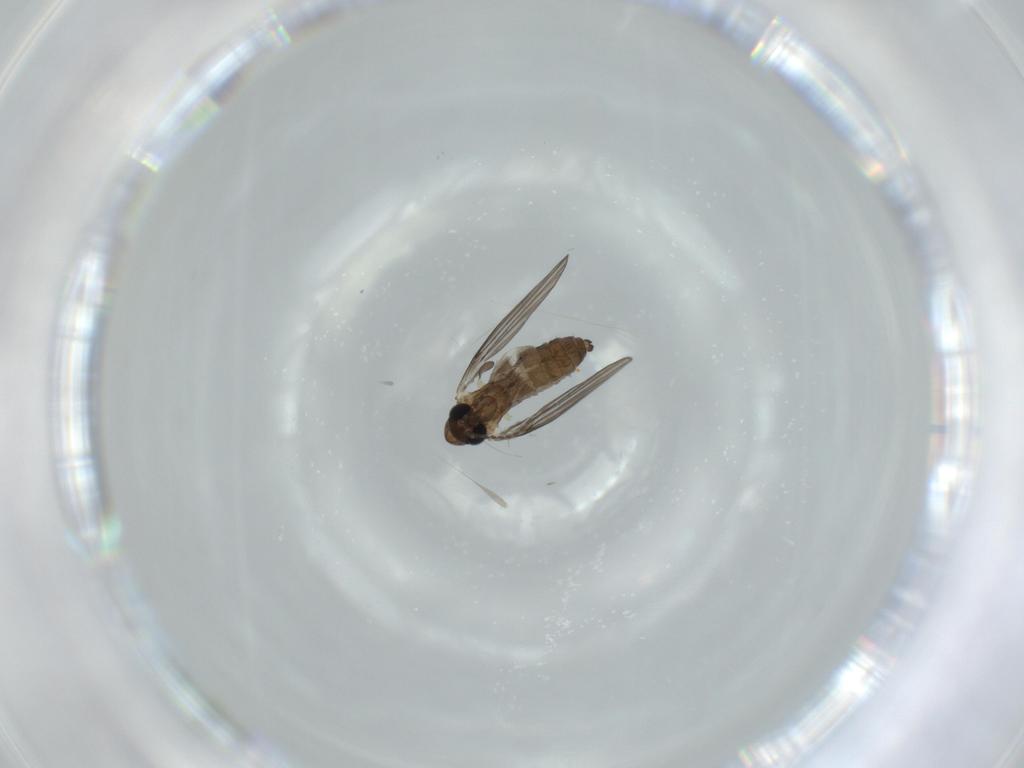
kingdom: Animalia
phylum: Arthropoda
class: Insecta
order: Diptera
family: Psychodidae
